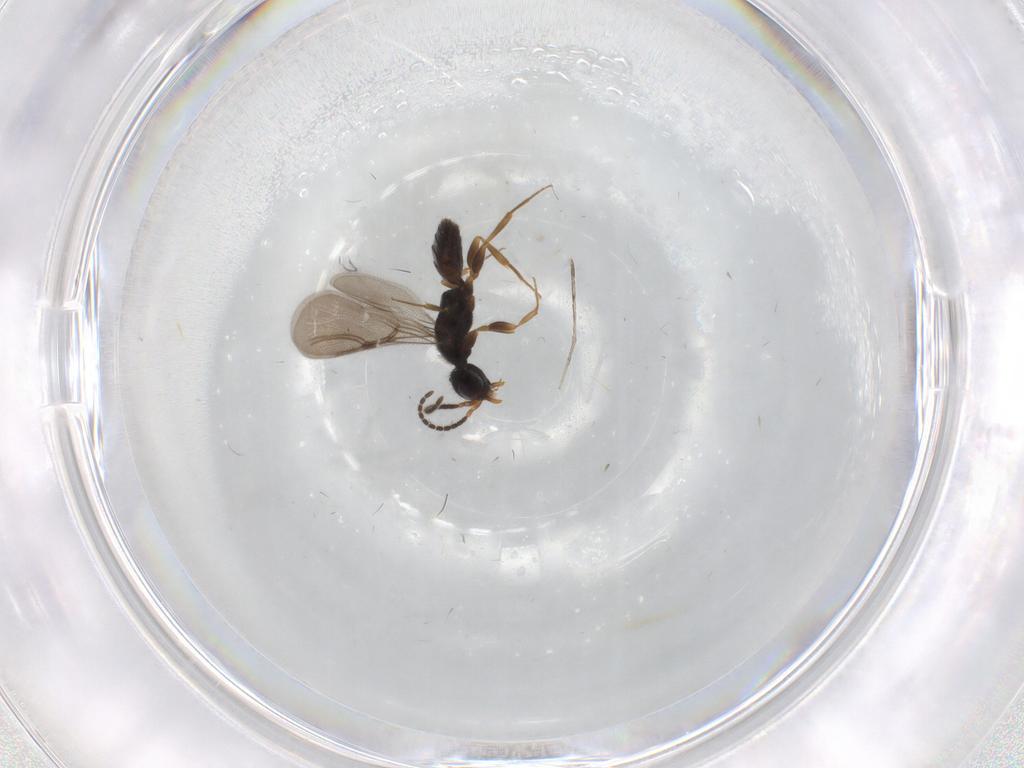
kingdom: Animalia
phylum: Arthropoda
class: Insecta
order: Hymenoptera
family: Bethylidae
